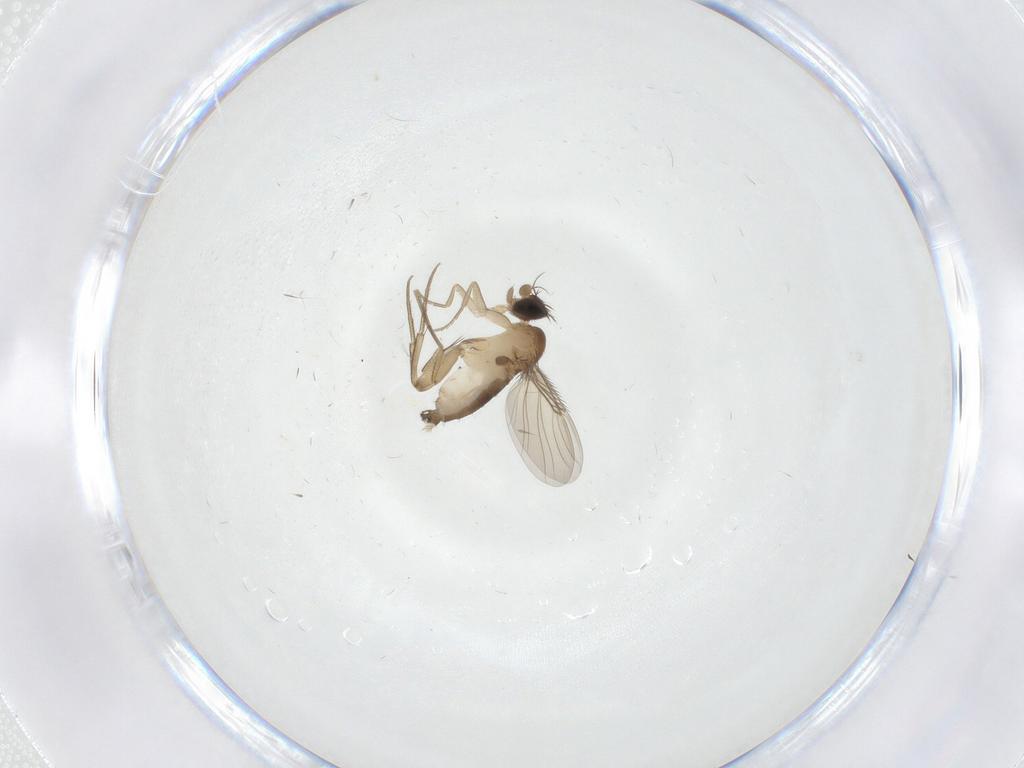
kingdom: Animalia
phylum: Arthropoda
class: Insecta
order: Diptera
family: Phoridae
